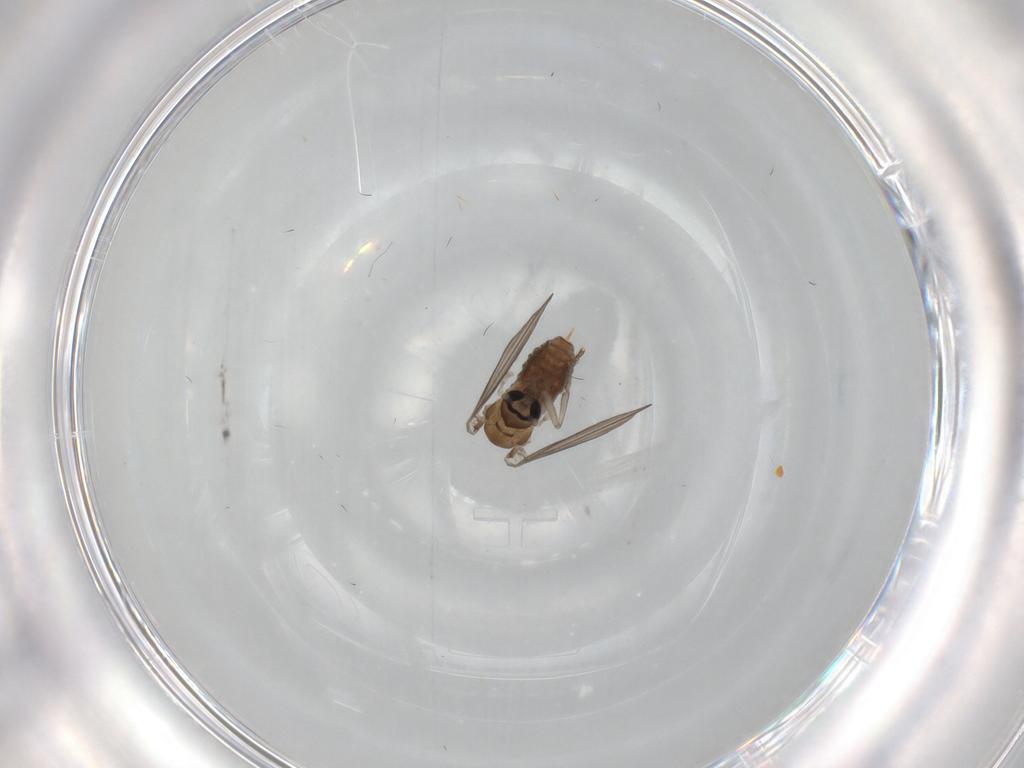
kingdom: Animalia
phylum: Arthropoda
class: Insecta
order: Diptera
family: Psychodidae
